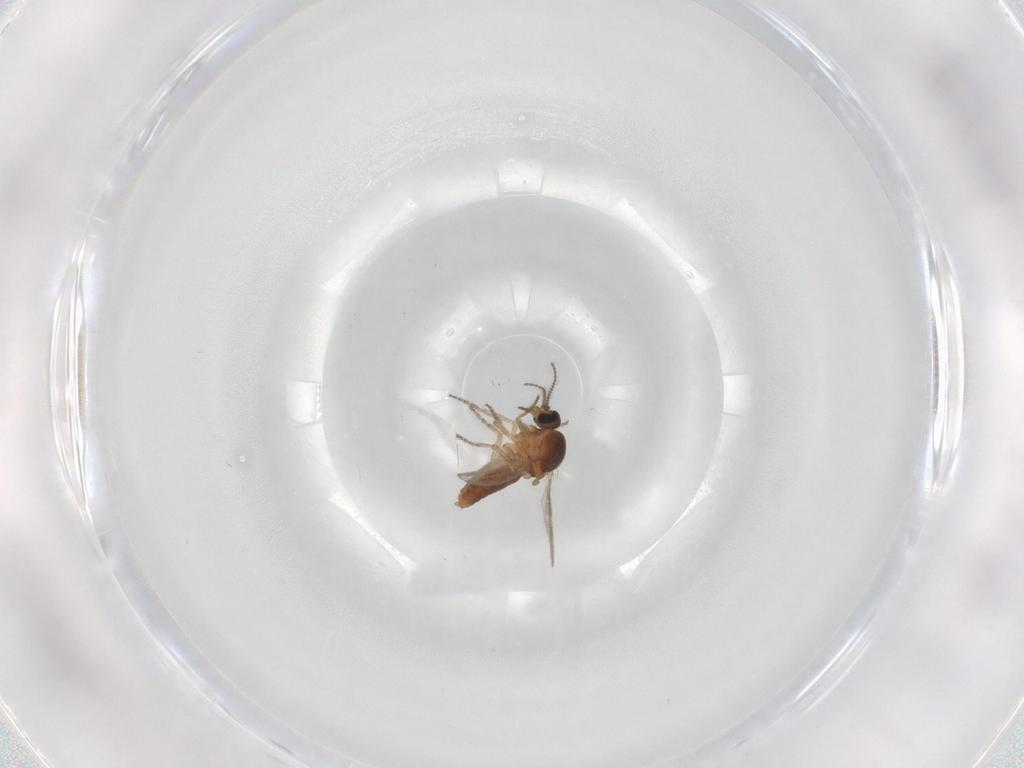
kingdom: Animalia
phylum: Arthropoda
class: Insecta
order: Diptera
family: Ceratopogonidae
